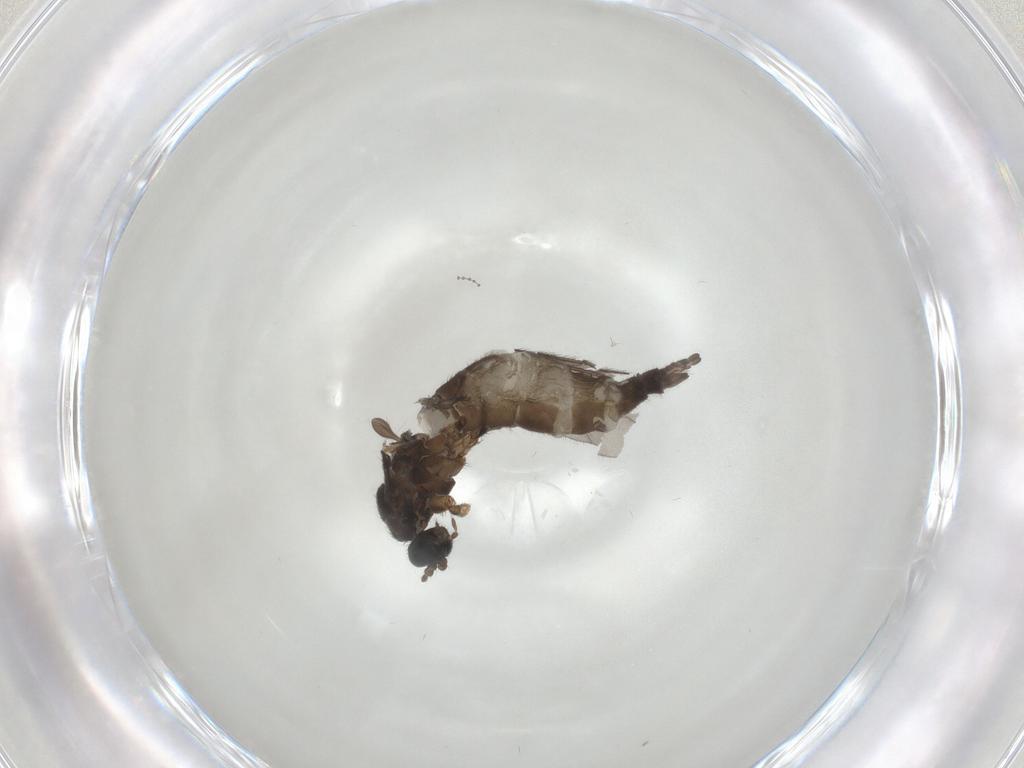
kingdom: Animalia
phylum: Arthropoda
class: Insecta
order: Diptera
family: Sciaridae
